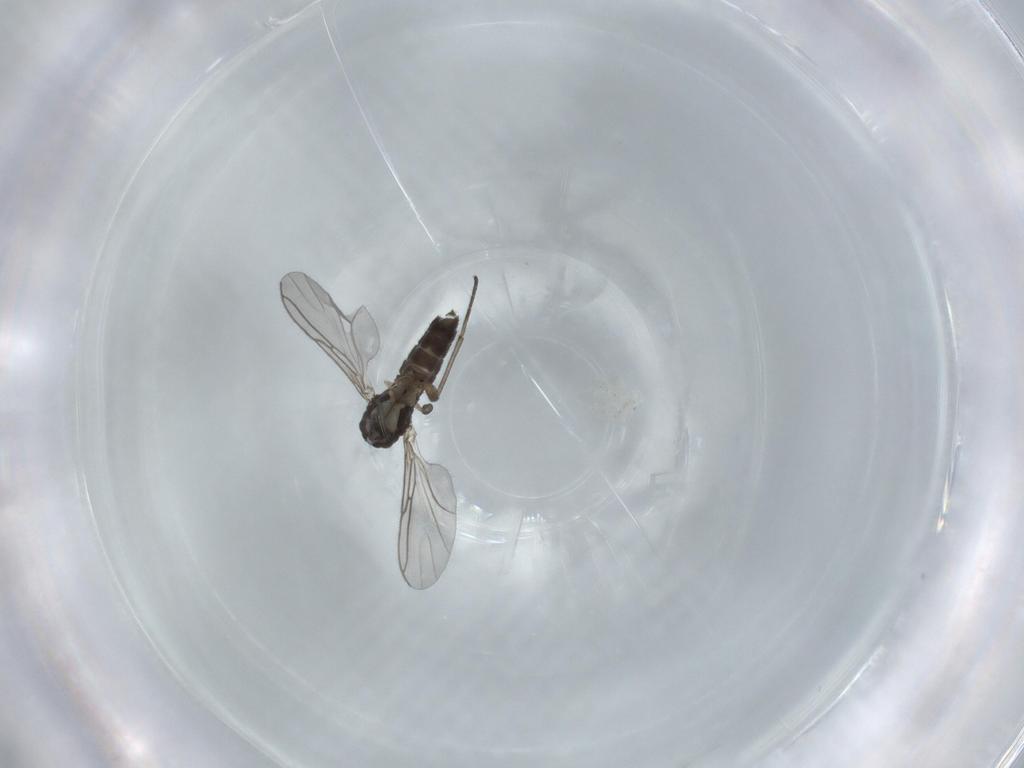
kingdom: Animalia
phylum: Arthropoda
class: Insecta
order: Diptera
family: Sciaridae
